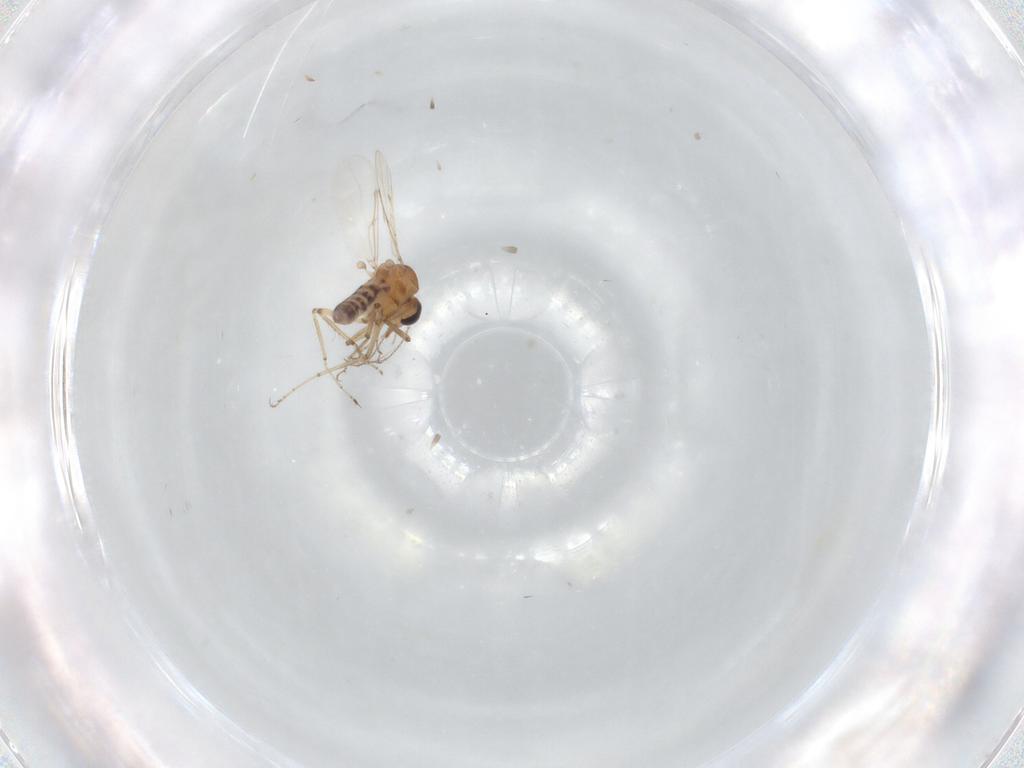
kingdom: Animalia
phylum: Arthropoda
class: Insecta
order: Diptera
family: Ceratopogonidae
